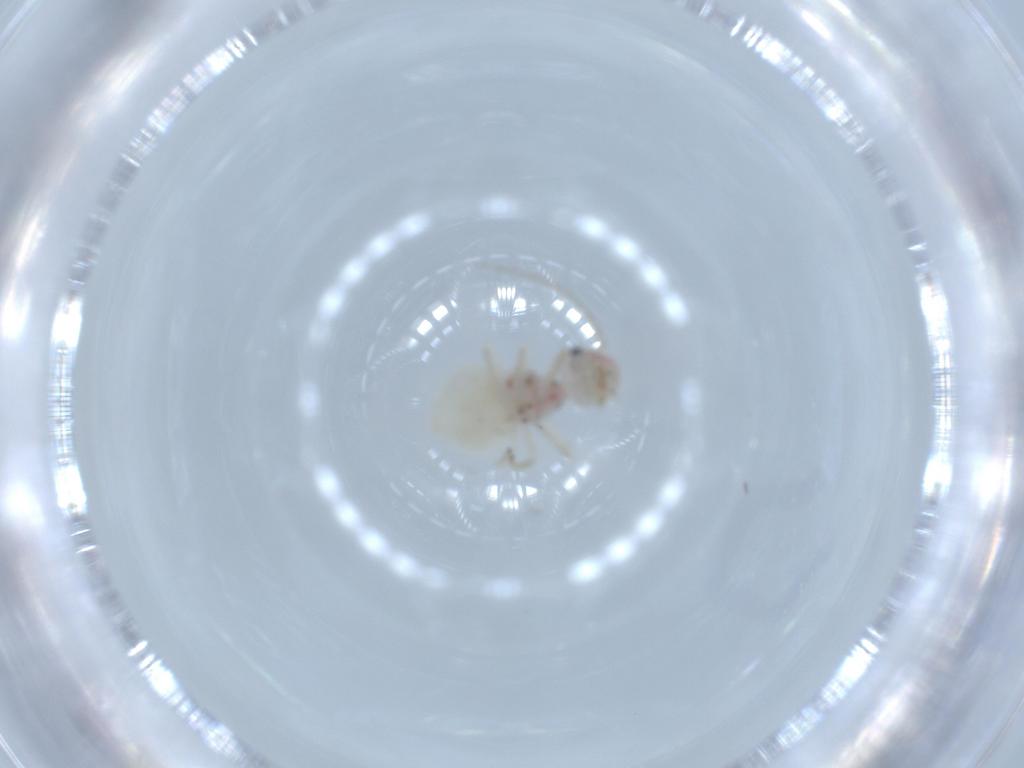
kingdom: Animalia
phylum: Arthropoda
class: Insecta
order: Psocodea
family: Amphipsocidae
